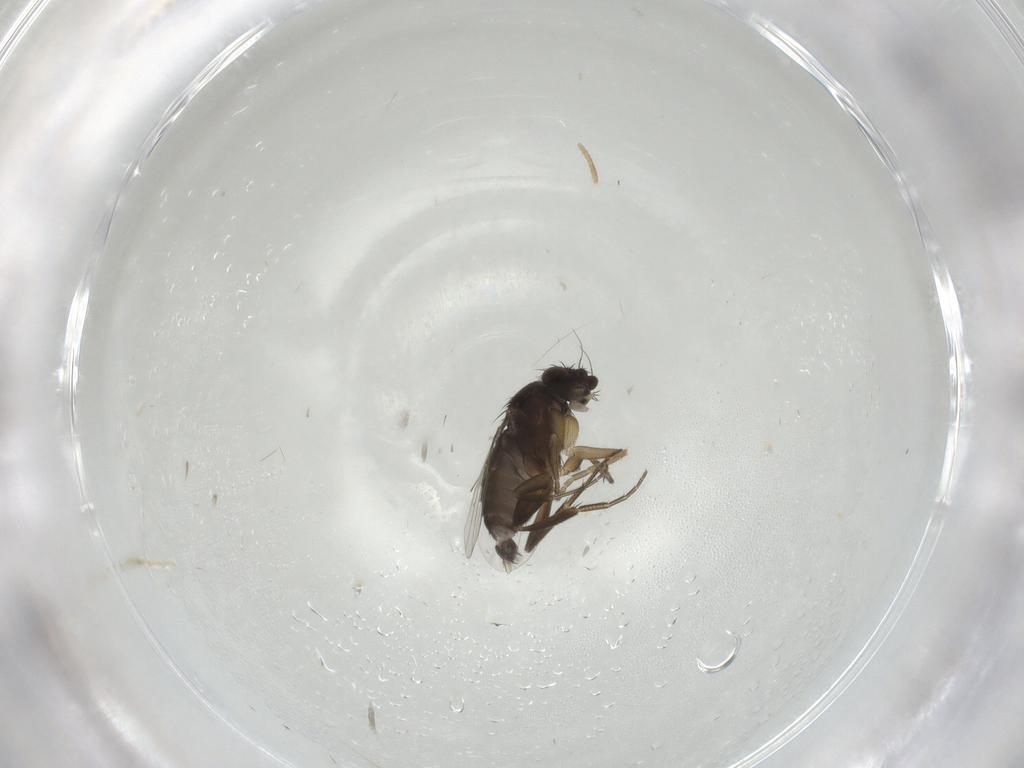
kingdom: Animalia
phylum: Arthropoda
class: Insecta
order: Diptera
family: Phoridae
